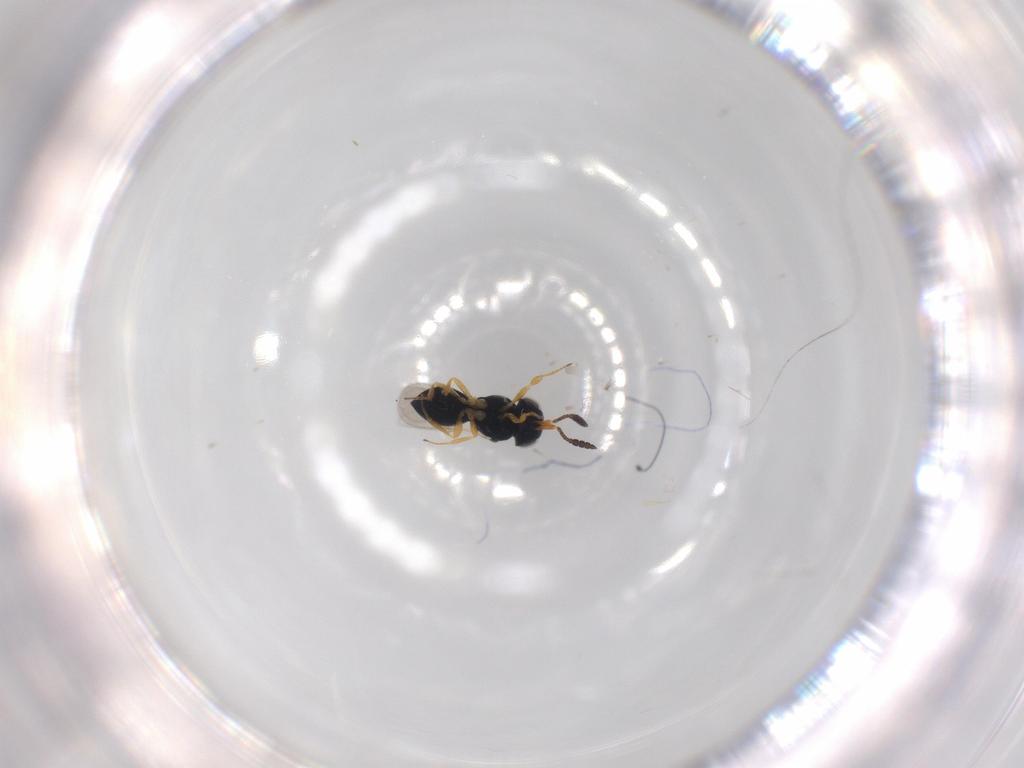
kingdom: Animalia
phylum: Arthropoda
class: Insecta
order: Hymenoptera
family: Scelionidae
